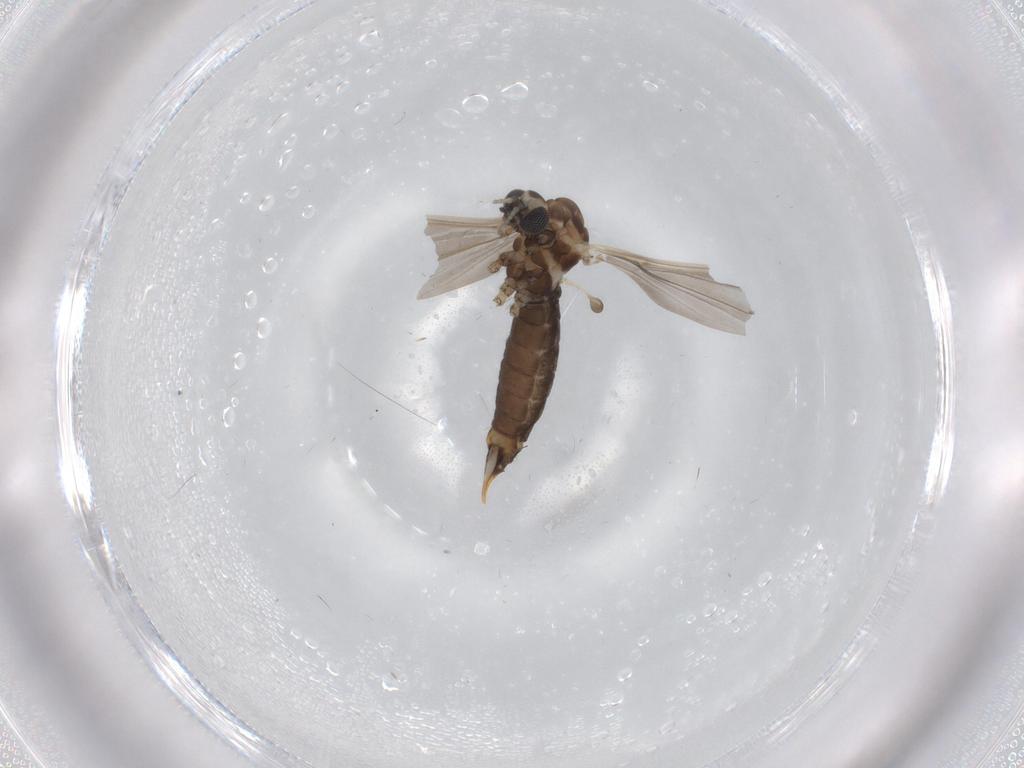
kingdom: Animalia
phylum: Arthropoda
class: Insecta
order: Diptera
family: Limoniidae
